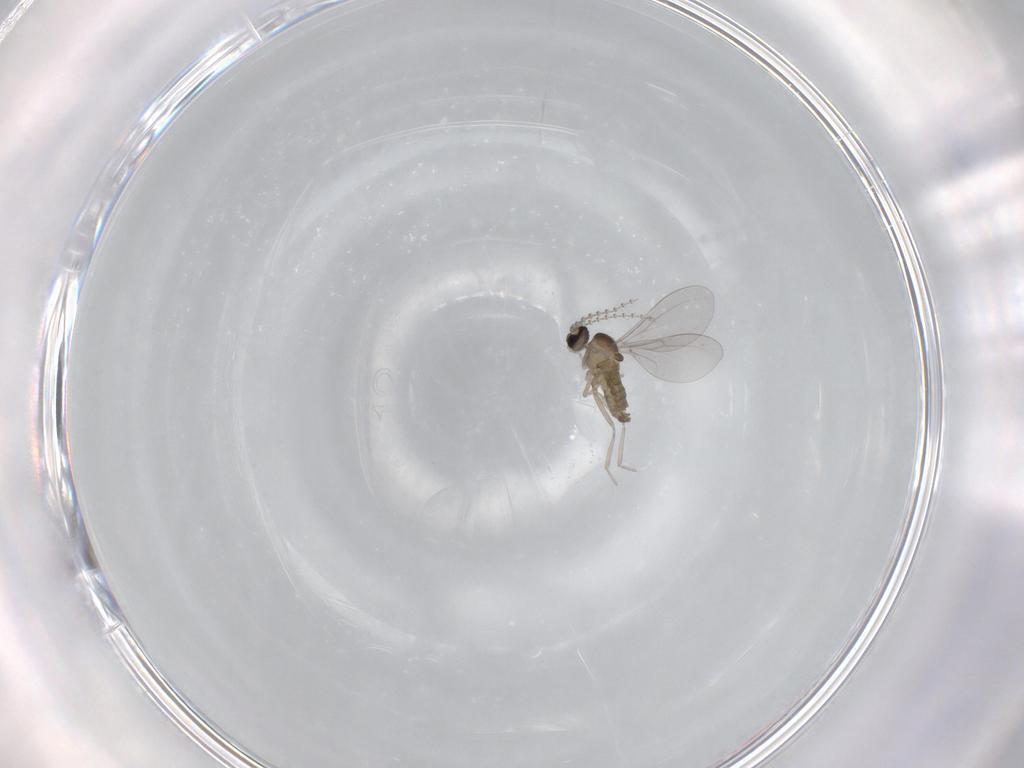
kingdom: Animalia
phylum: Arthropoda
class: Insecta
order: Diptera
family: Cecidomyiidae
